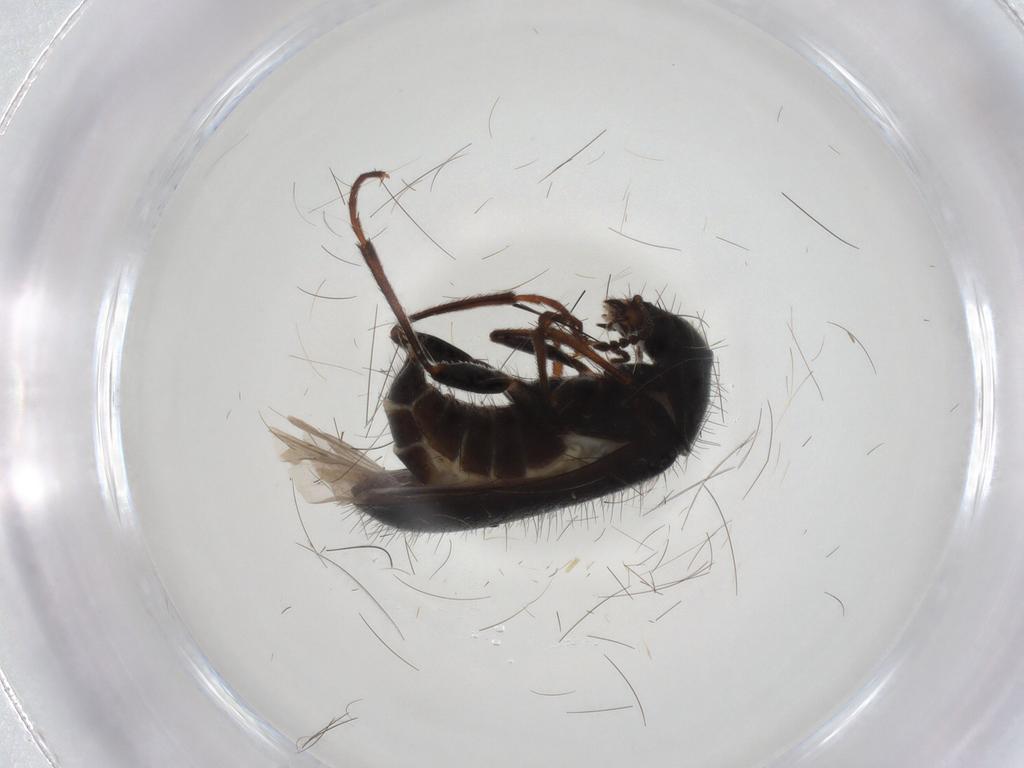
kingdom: Animalia
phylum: Arthropoda
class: Insecta
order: Coleoptera
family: Melyridae
